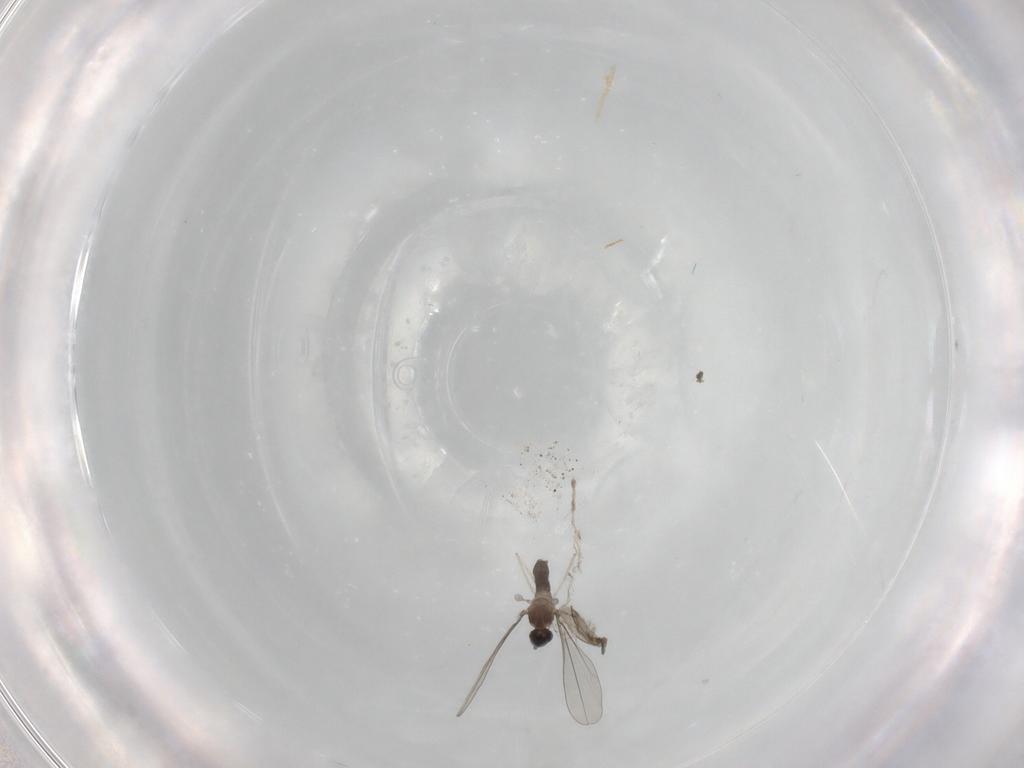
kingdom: Animalia
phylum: Arthropoda
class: Insecta
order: Diptera
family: Cecidomyiidae
